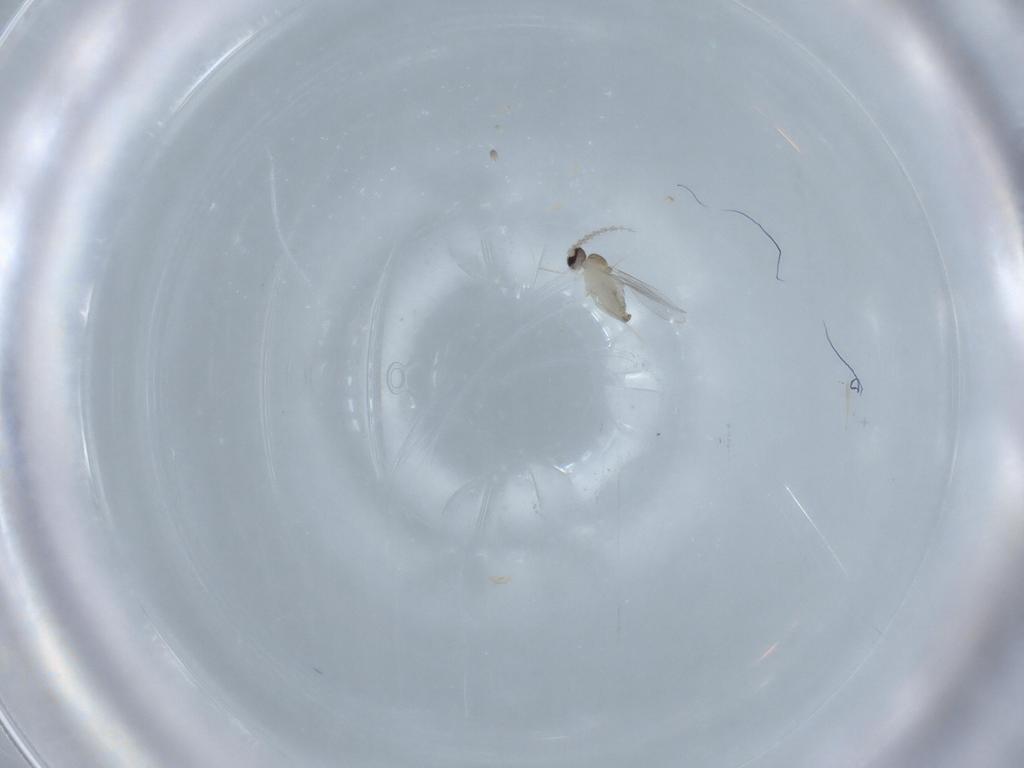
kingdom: Animalia
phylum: Arthropoda
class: Insecta
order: Diptera
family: Cecidomyiidae
